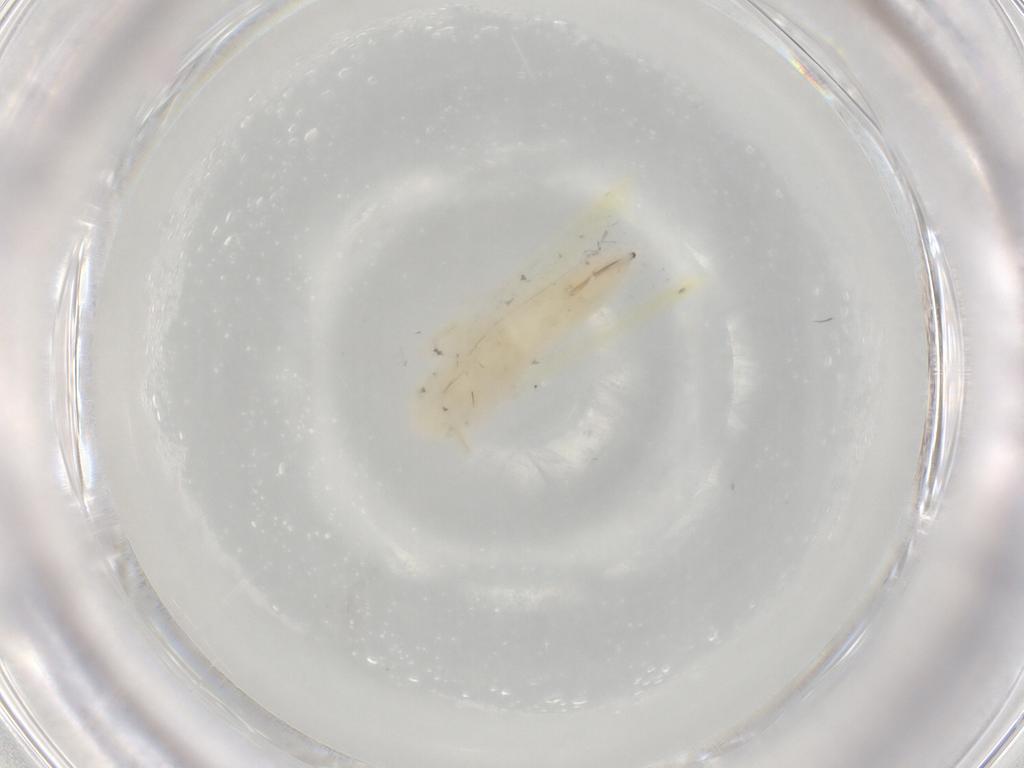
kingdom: Animalia
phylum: Arthropoda
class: Insecta
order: Hemiptera
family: Cicadellidae
